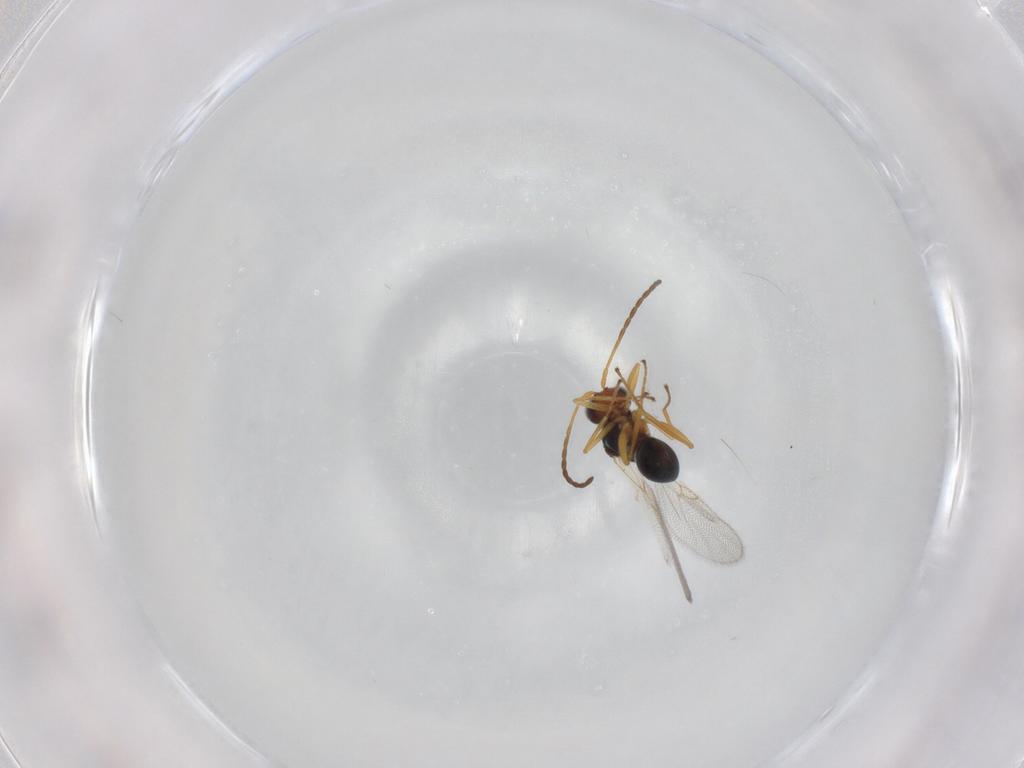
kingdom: Animalia
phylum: Arthropoda
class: Insecta
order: Hymenoptera
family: Figitidae
